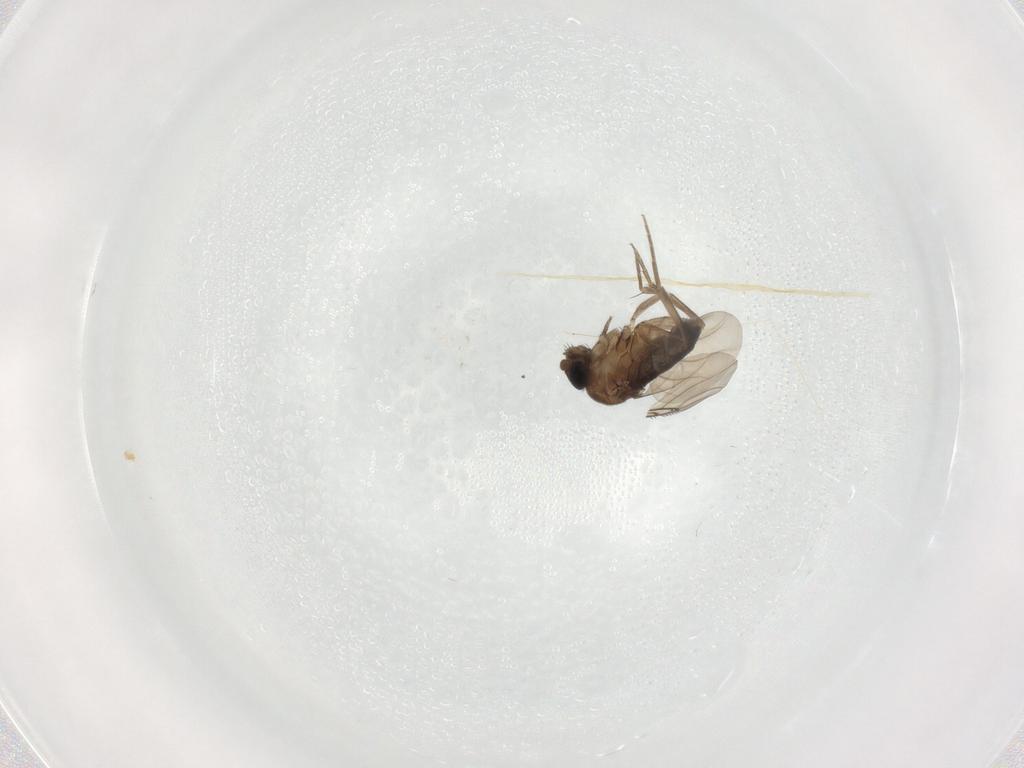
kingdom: Animalia
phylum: Arthropoda
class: Insecta
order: Diptera
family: Phoridae
